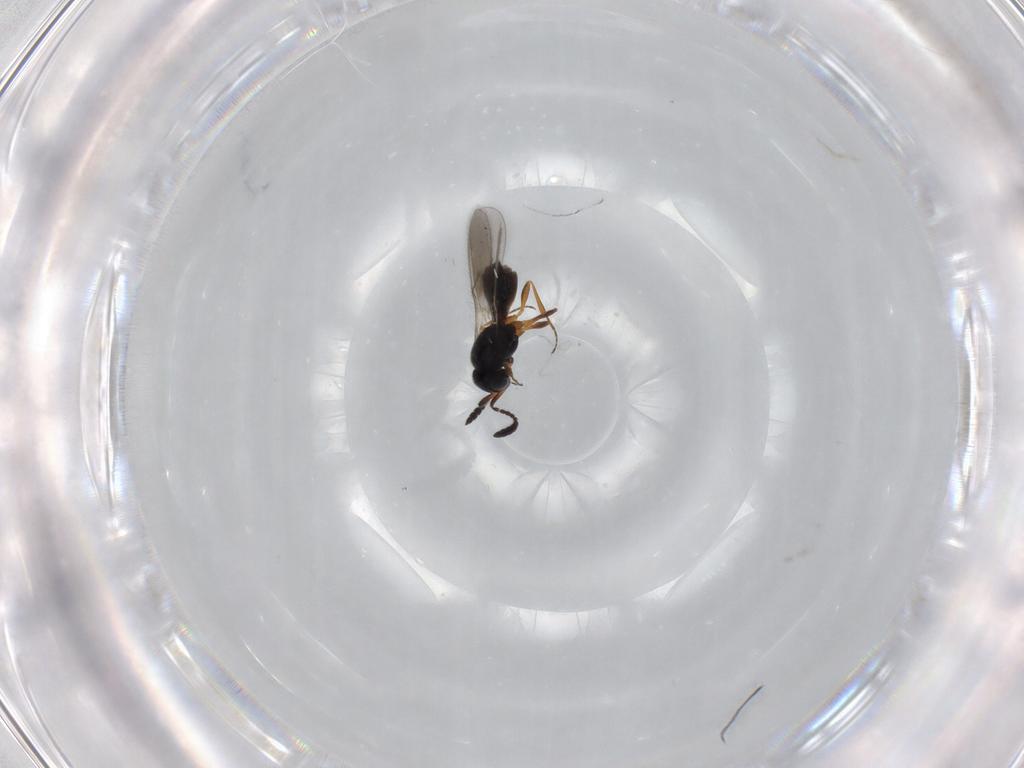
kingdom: Animalia
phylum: Arthropoda
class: Insecta
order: Hymenoptera
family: Scelionidae
